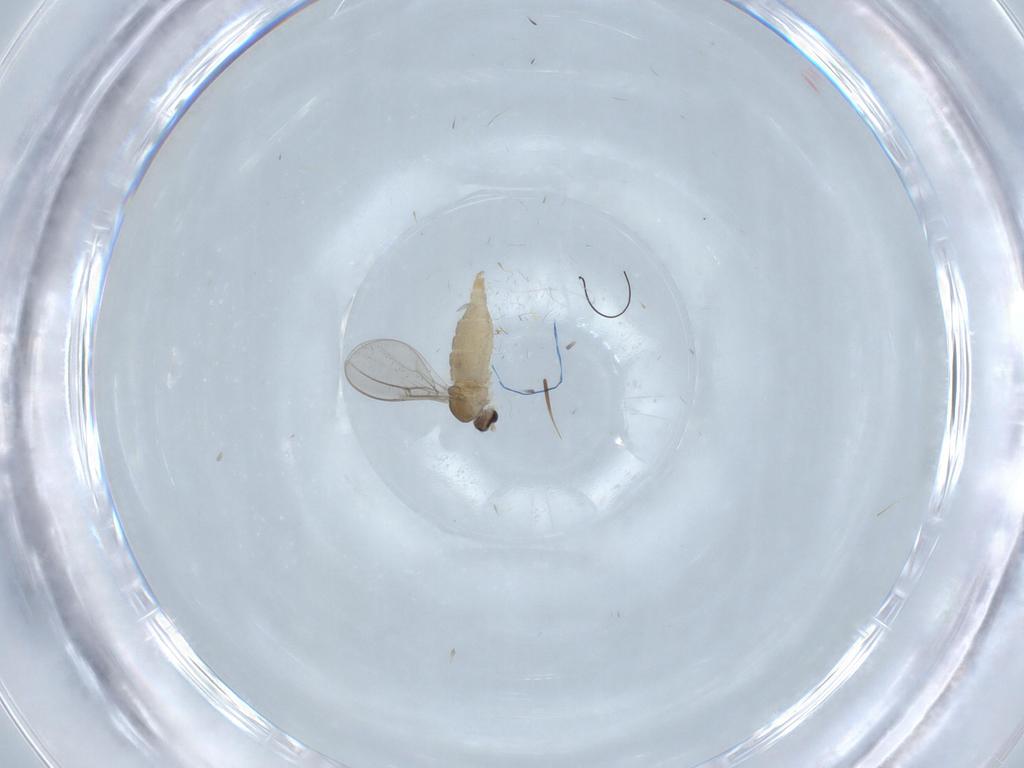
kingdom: Animalia
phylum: Arthropoda
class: Insecta
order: Diptera
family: Cecidomyiidae
